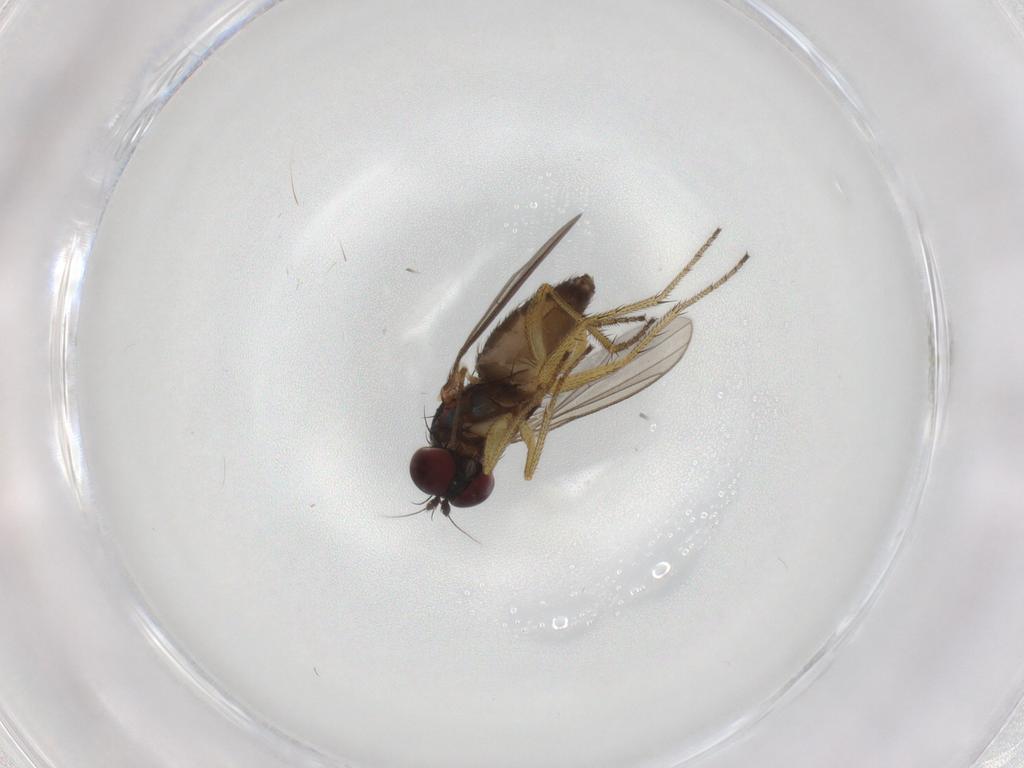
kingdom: Animalia
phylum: Arthropoda
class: Insecta
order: Diptera
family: Dolichopodidae
